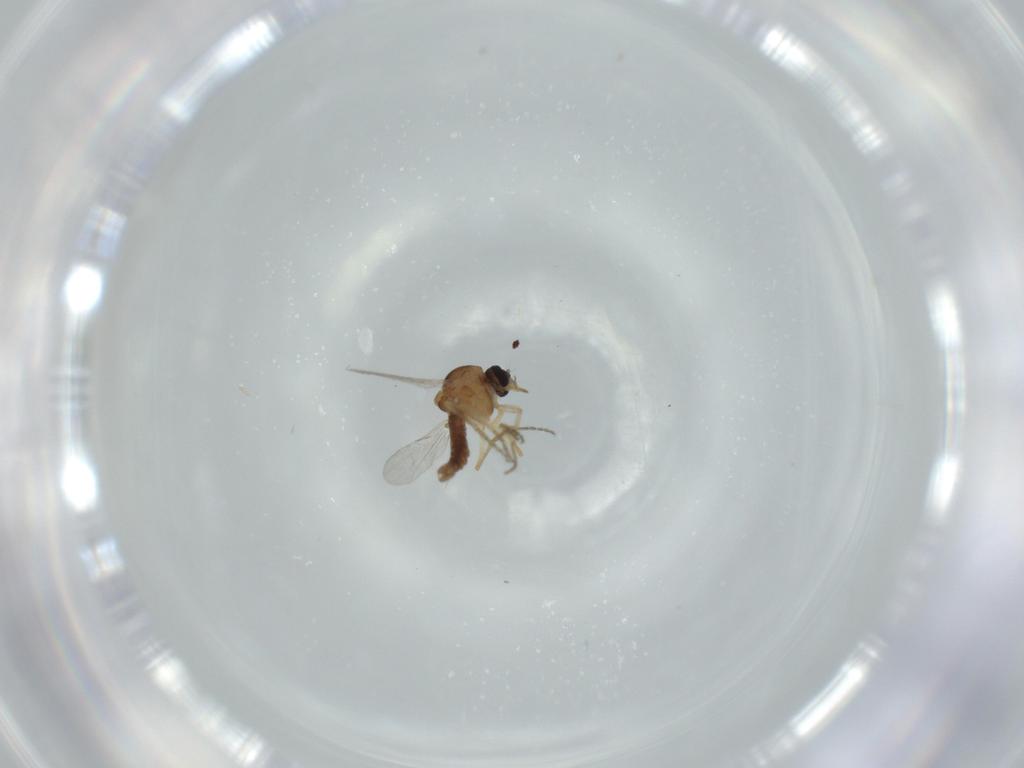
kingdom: Animalia
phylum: Arthropoda
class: Insecta
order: Diptera
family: Ceratopogonidae
